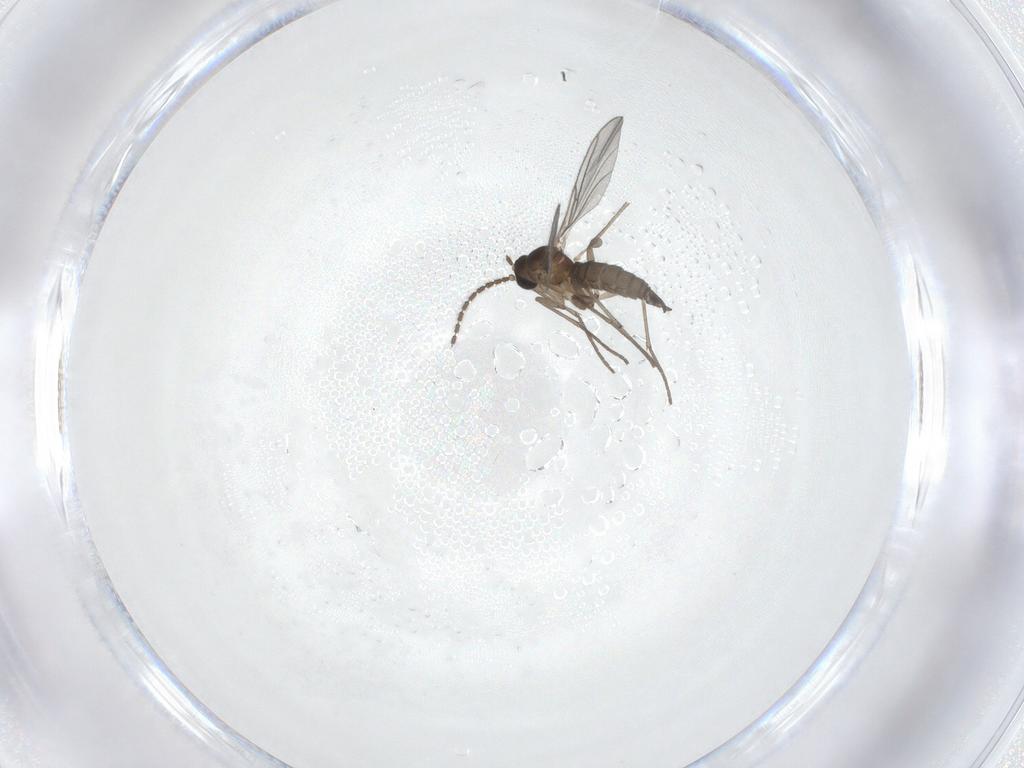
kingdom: Animalia
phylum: Arthropoda
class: Insecta
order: Diptera
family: Sciaridae
